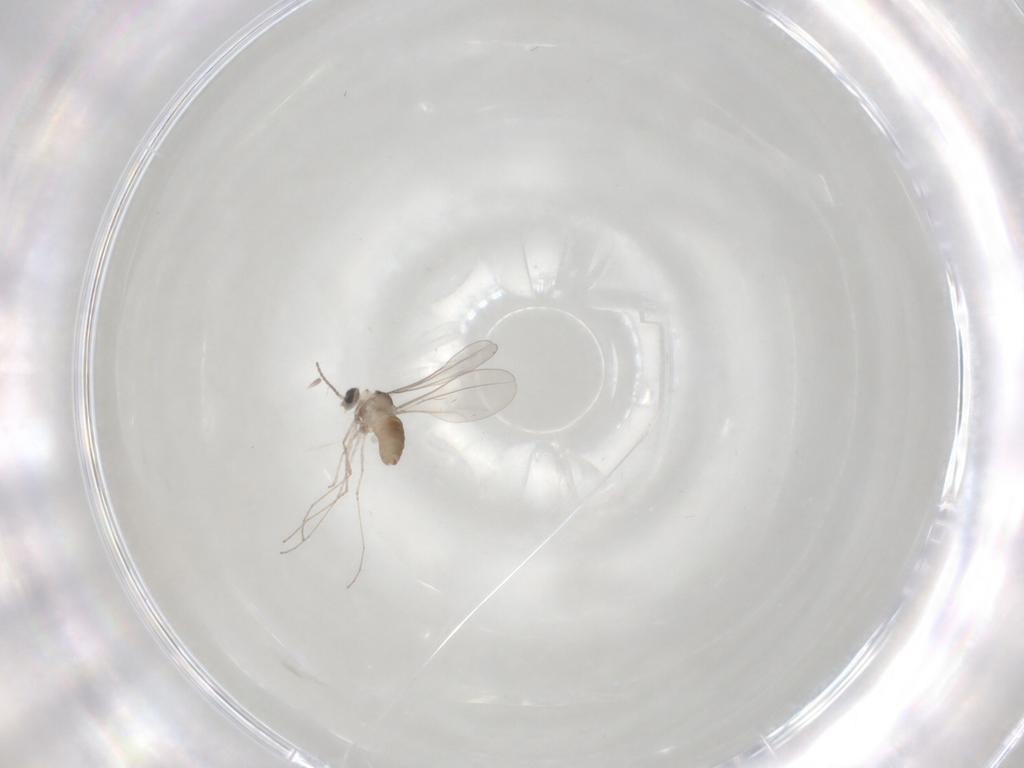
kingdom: Animalia
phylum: Arthropoda
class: Insecta
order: Diptera
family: Cecidomyiidae
